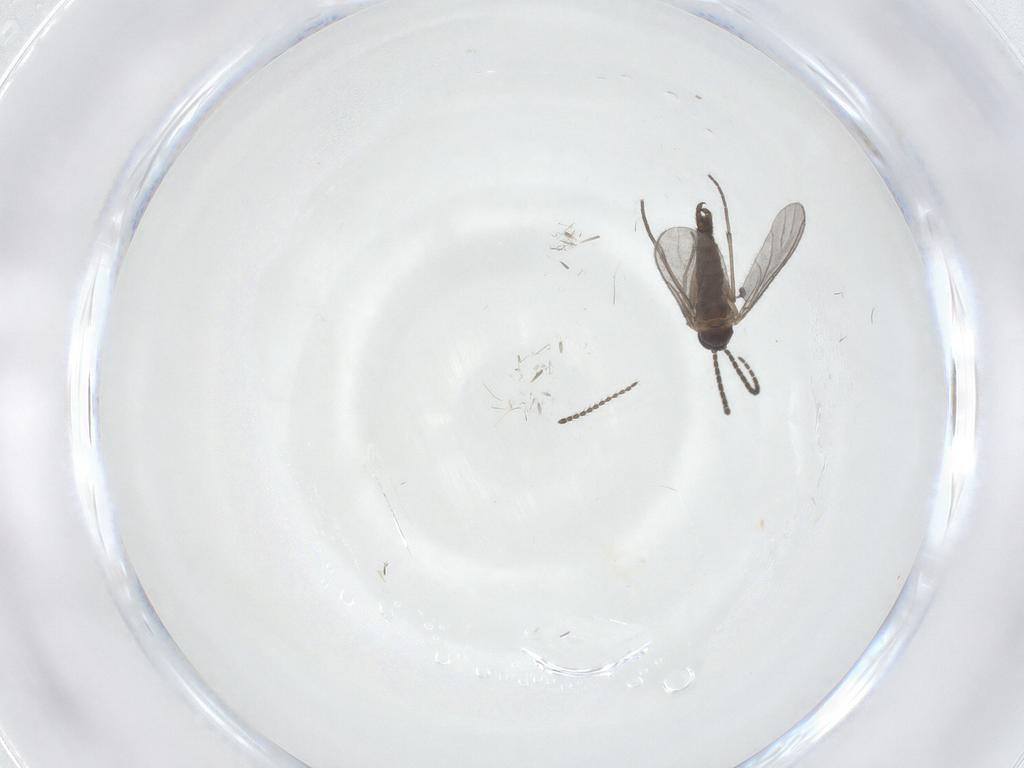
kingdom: Animalia
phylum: Arthropoda
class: Insecta
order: Diptera
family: Sciaridae
